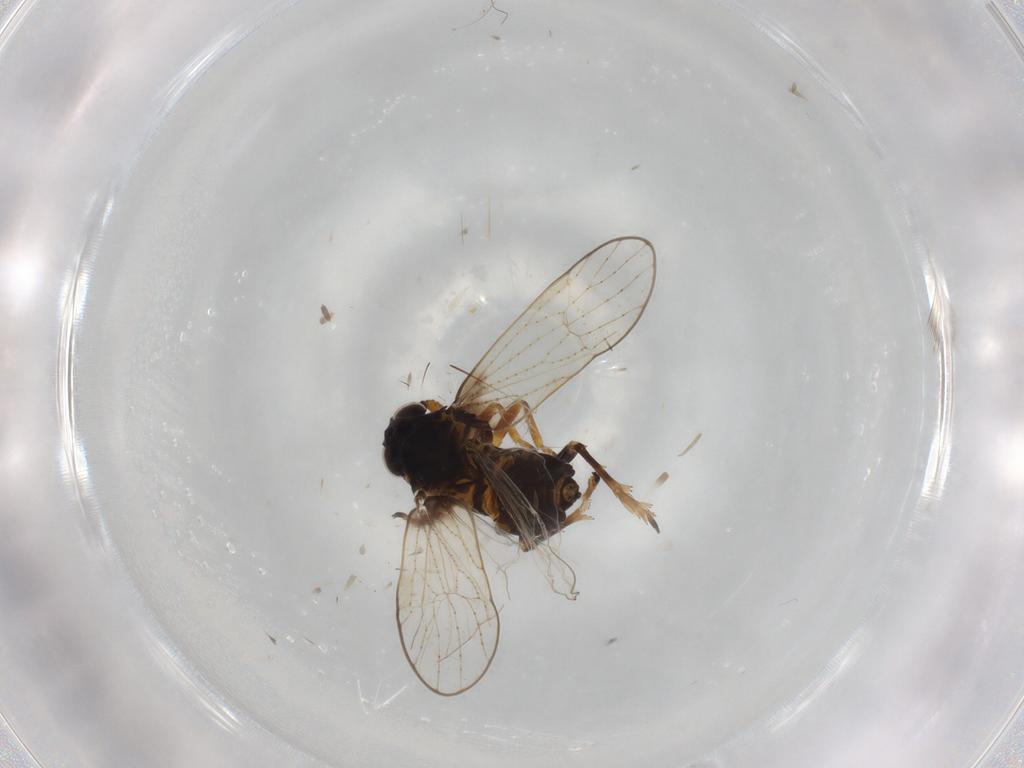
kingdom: Animalia
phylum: Arthropoda
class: Insecta
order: Hemiptera
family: Delphacidae
